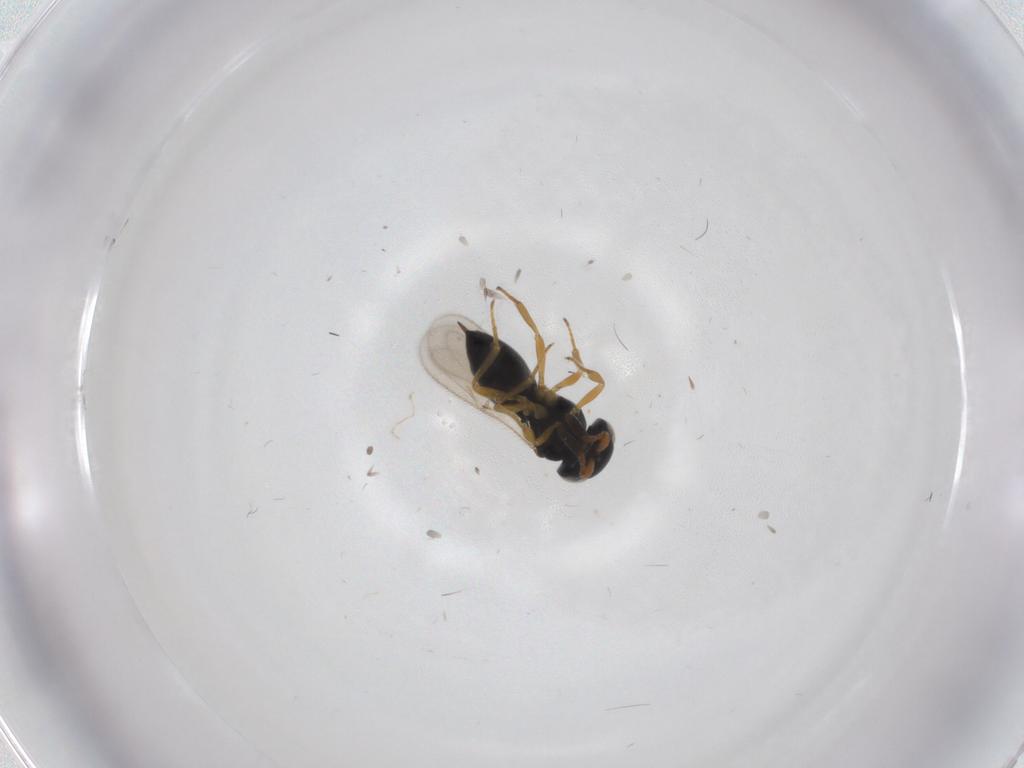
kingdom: Animalia
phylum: Arthropoda
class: Insecta
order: Hymenoptera
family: Scelionidae
